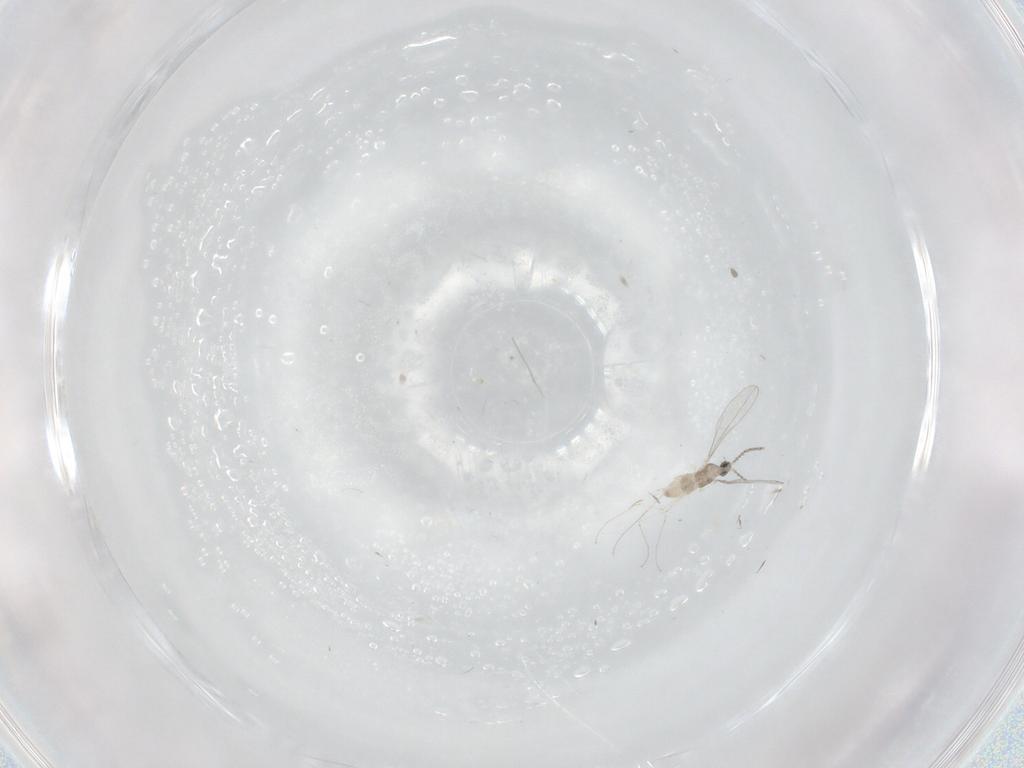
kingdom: Animalia
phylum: Arthropoda
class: Insecta
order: Diptera
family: Cecidomyiidae
